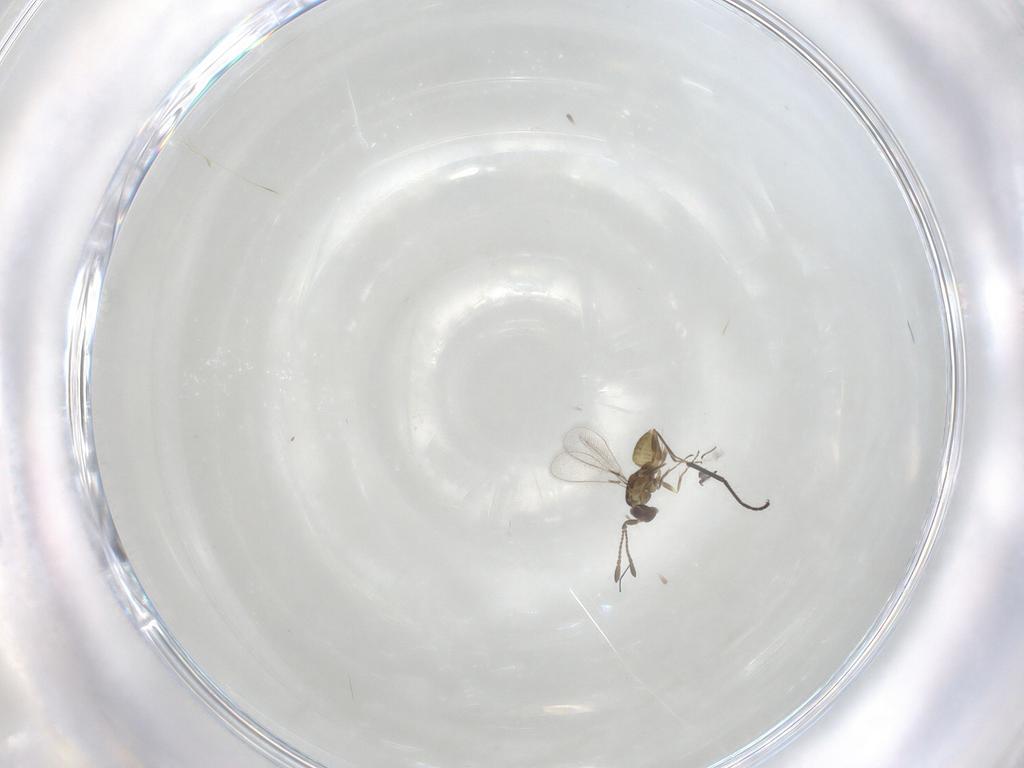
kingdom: Animalia
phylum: Arthropoda
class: Insecta
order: Hymenoptera
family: Mymaridae
